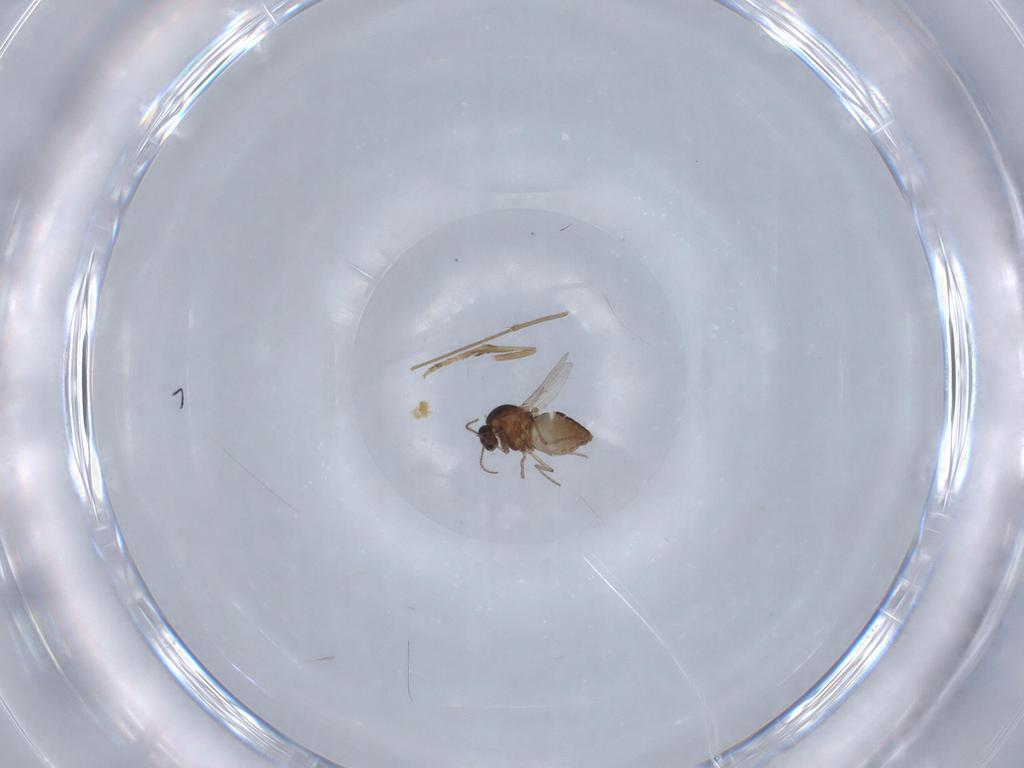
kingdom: Animalia
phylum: Arthropoda
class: Insecta
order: Diptera
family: Ceratopogonidae
